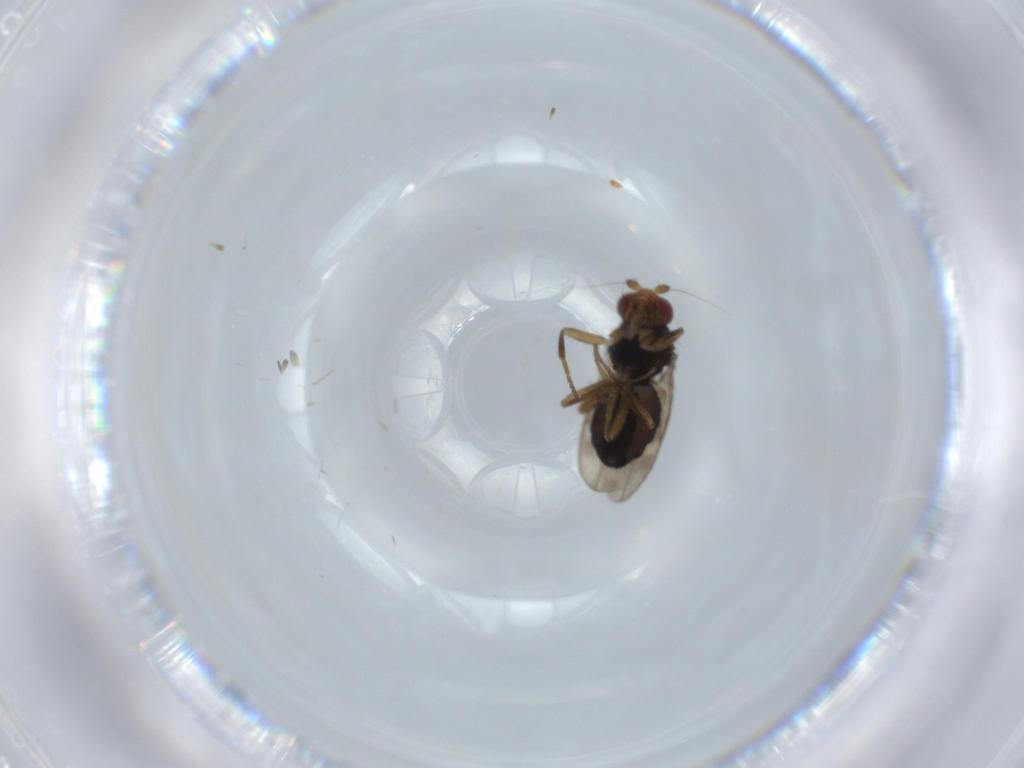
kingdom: Animalia
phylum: Arthropoda
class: Insecta
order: Diptera
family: Sphaeroceridae
